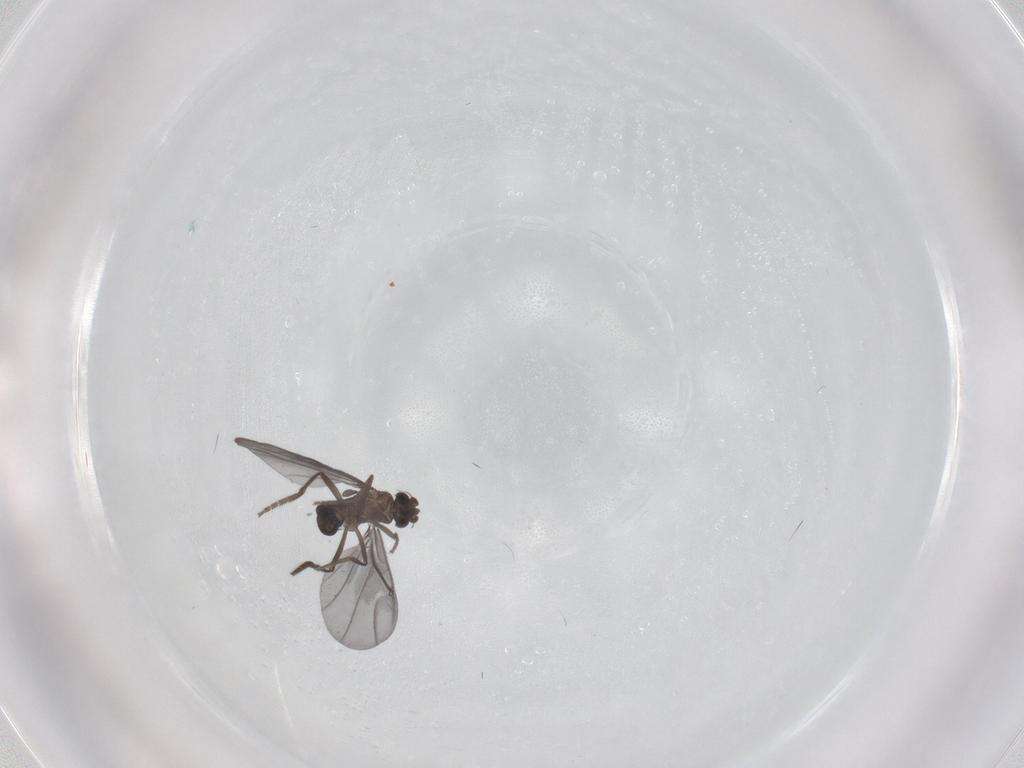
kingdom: Animalia
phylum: Arthropoda
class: Insecta
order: Diptera
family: Phoridae
